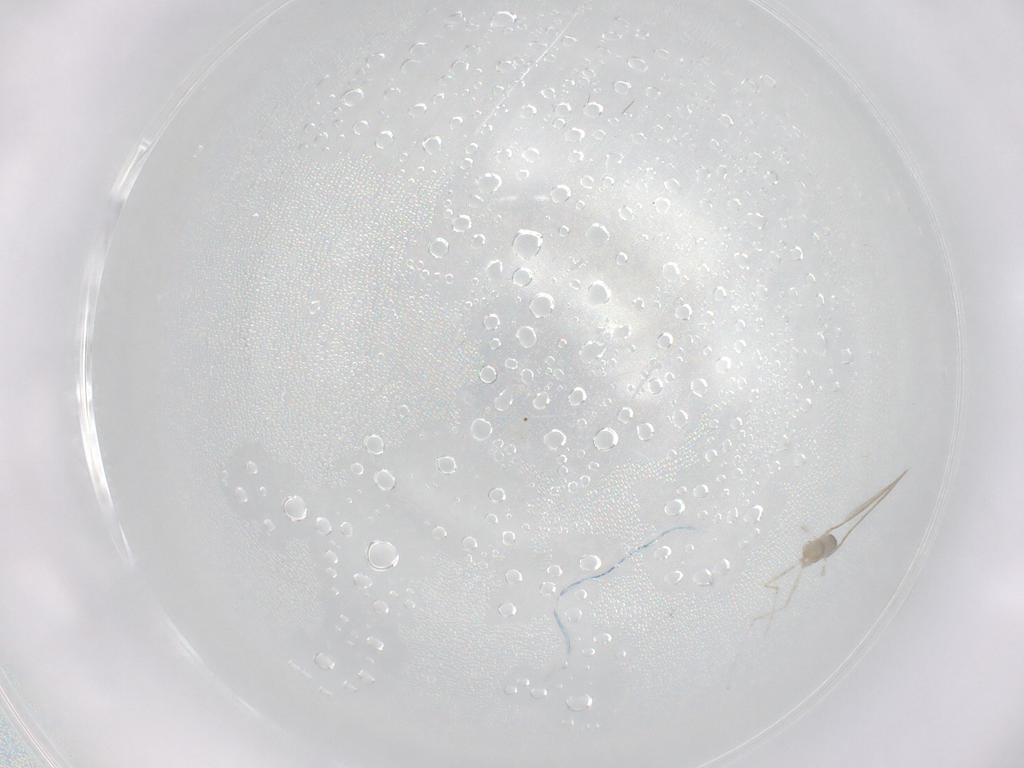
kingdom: Animalia
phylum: Arthropoda
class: Insecta
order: Diptera
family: Cecidomyiidae
